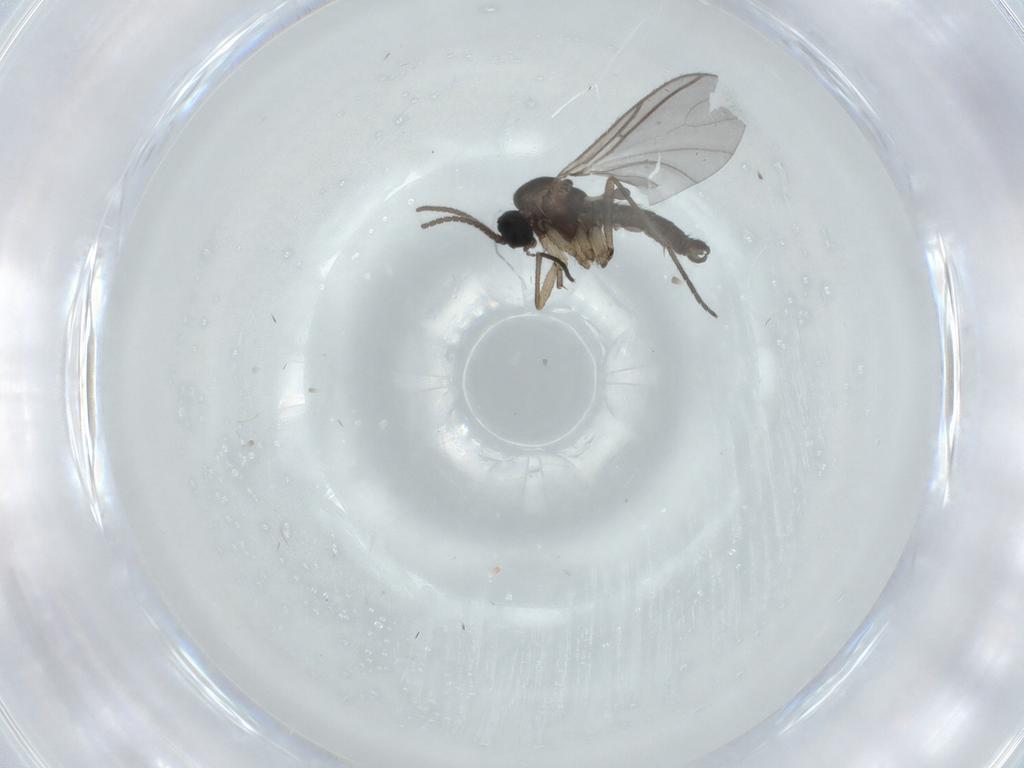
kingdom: Animalia
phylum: Arthropoda
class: Insecta
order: Diptera
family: Sciaridae
